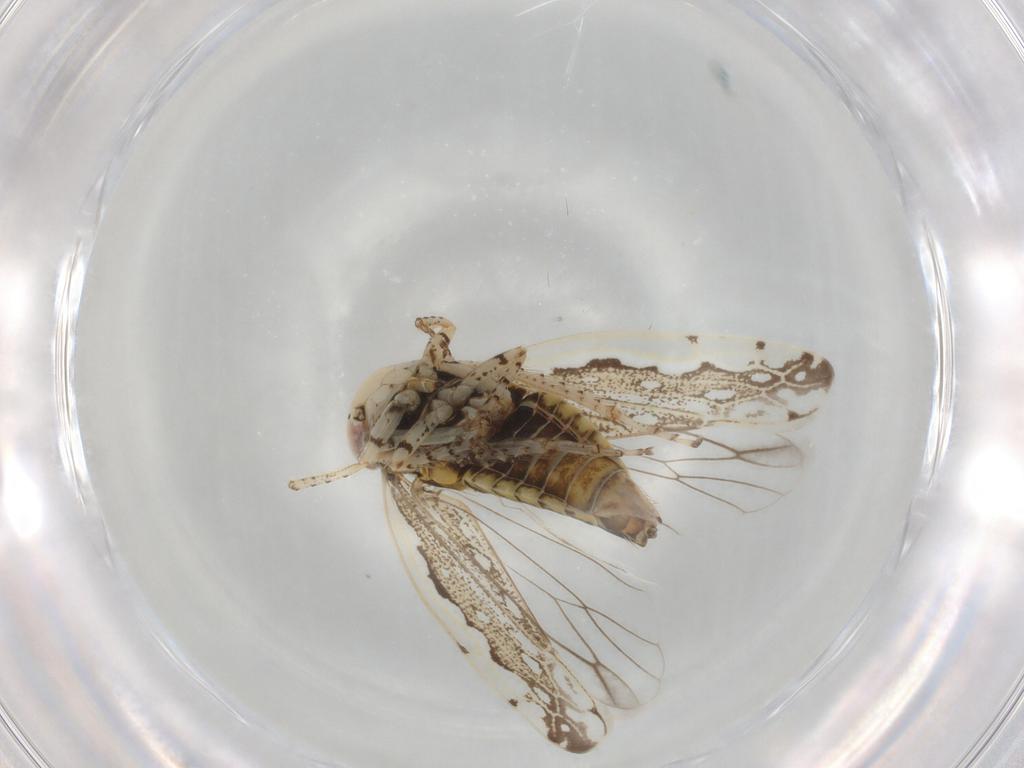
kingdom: Animalia
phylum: Arthropoda
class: Insecta
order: Hemiptera
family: Cicadellidae
